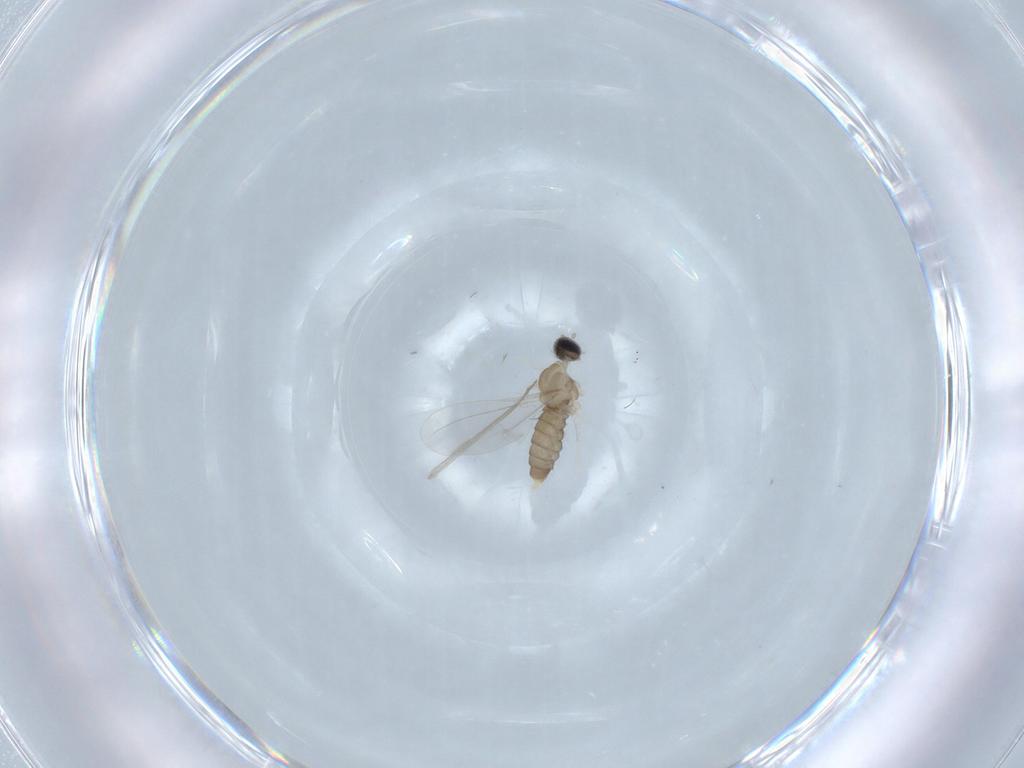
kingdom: Animalia
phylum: Arthropoda
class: Insecta
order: Diptera
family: Cecidomyiidae
